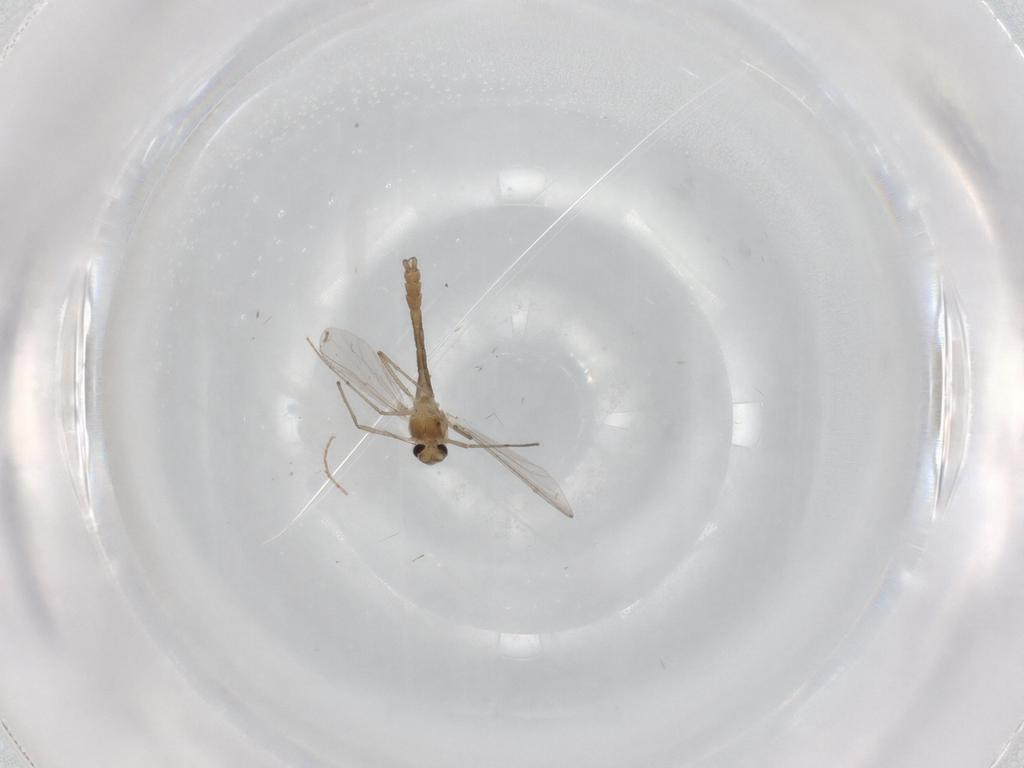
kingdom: Animalia
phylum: Arthropoda
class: Insecta
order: Diptera
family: Chironomidae
